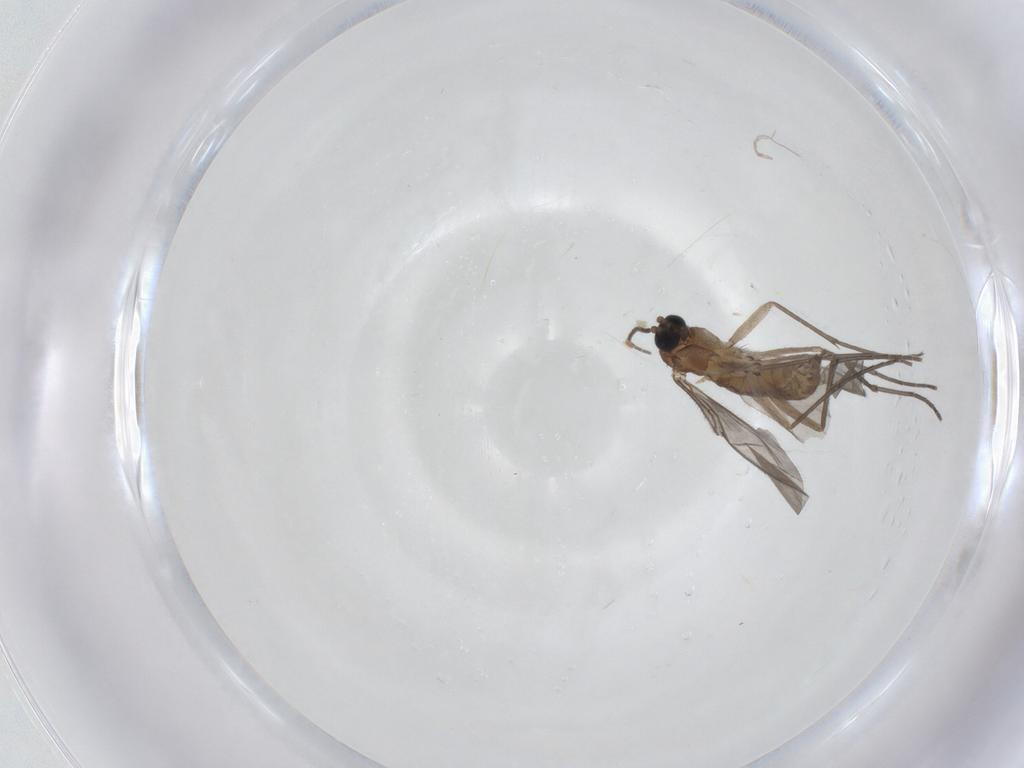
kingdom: Animalia
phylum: Arthropoda
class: Insecta
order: Diptera
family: Sciaridae
